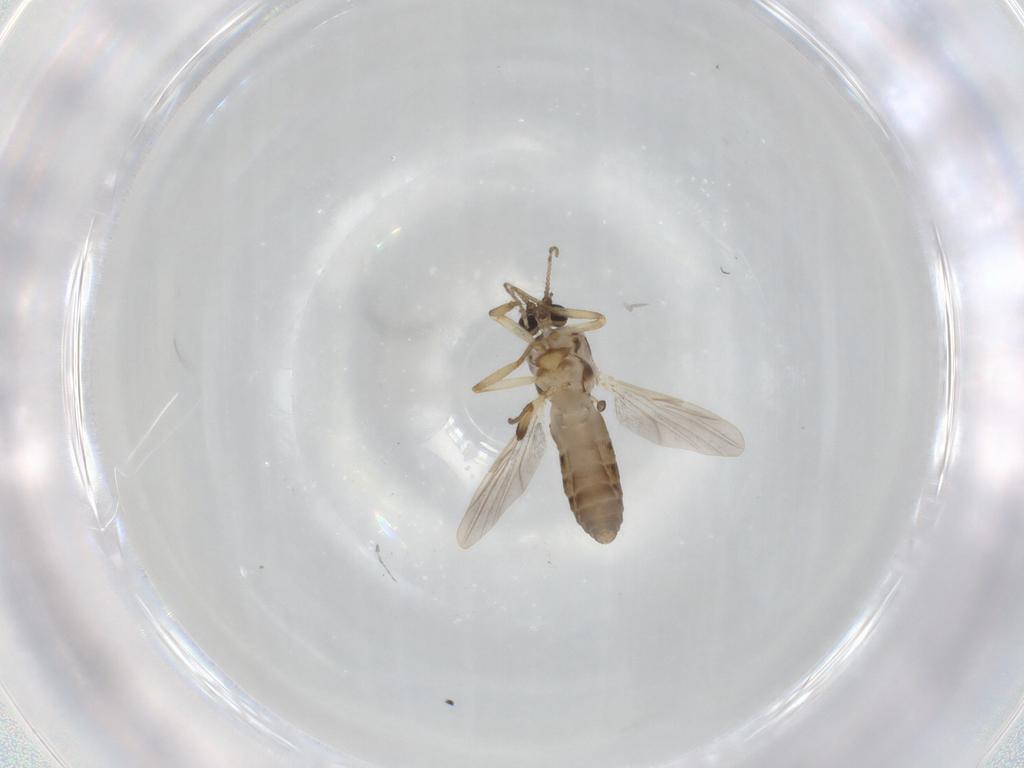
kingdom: Animalia
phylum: Arthropoda
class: Insecta
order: Diptera
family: Ceratopogonidae
